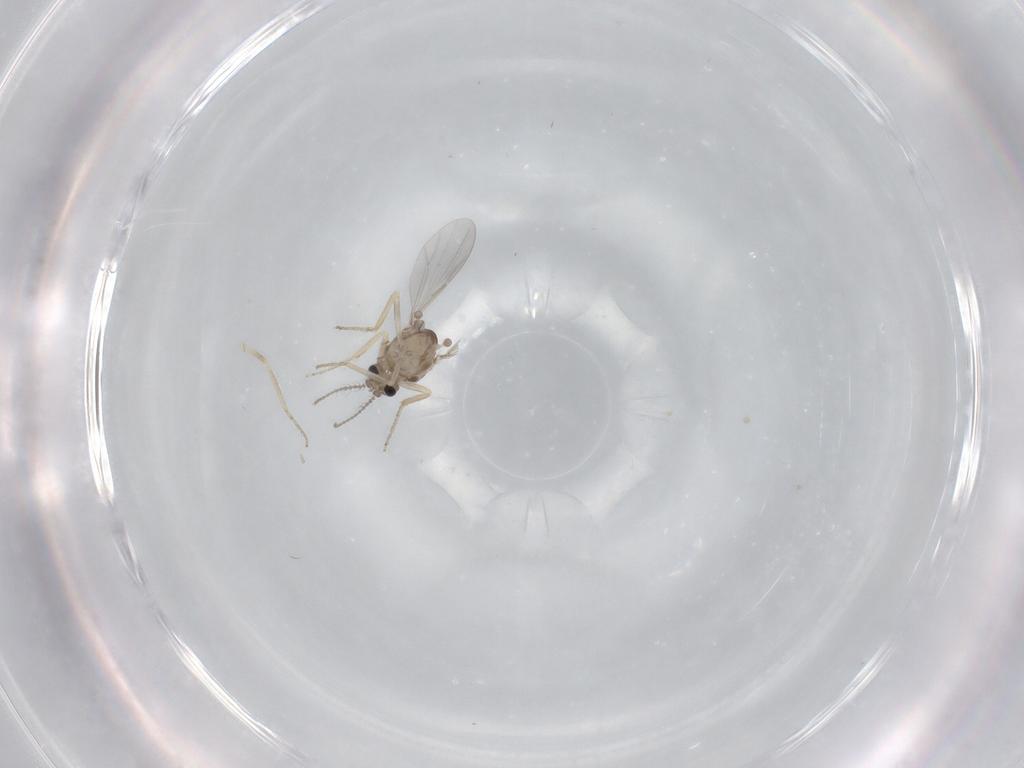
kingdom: Animalia
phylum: Arthropoda
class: Insecta
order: Diptera
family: Ceratopogonidae
